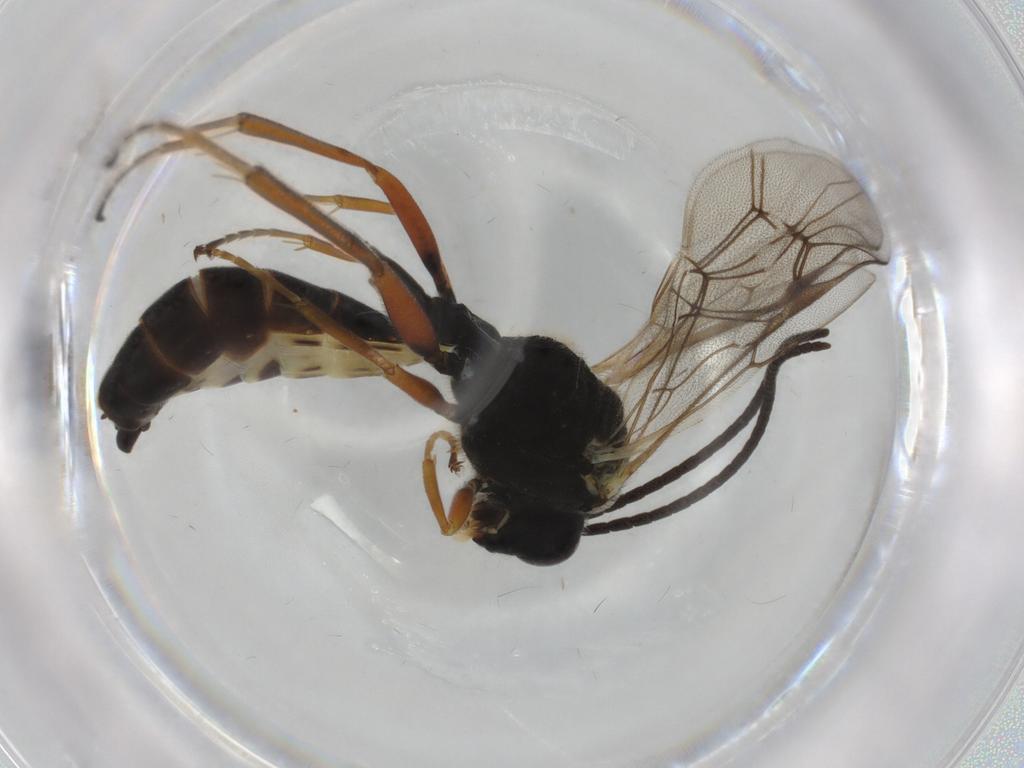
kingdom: Animalia
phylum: Arthropoda
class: Insecta
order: Hymenoptera
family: Ichneumonidae
